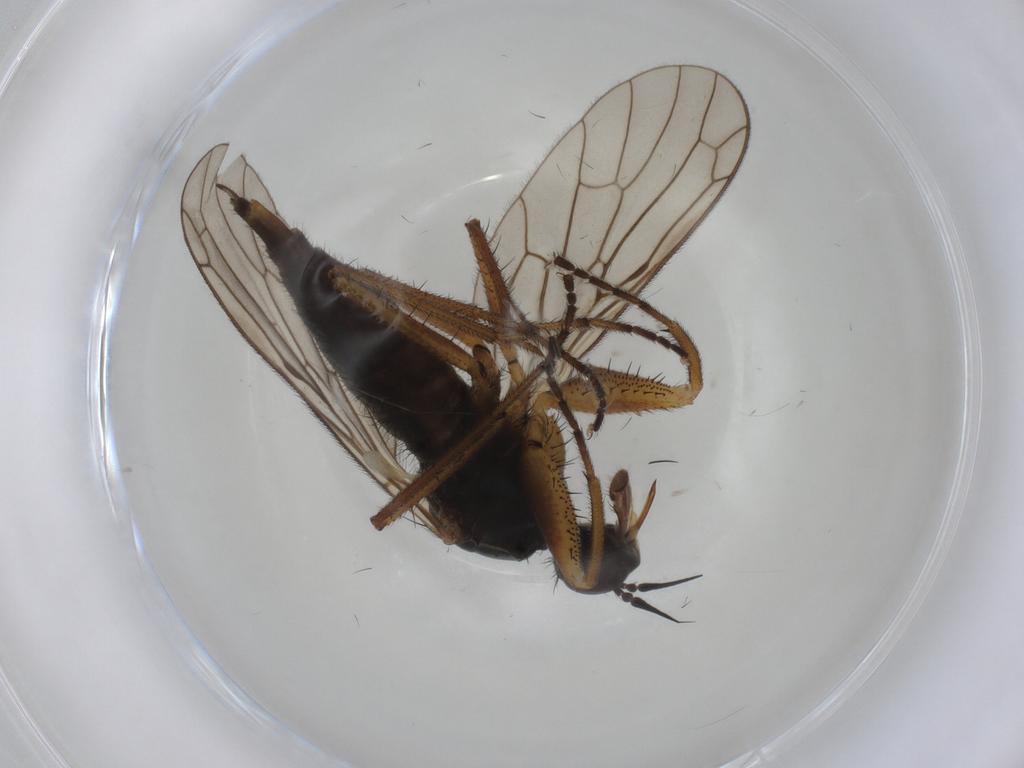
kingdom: Animalia
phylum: Arthropoda
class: Insecta
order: Diptera
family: Ceratopogonidae
